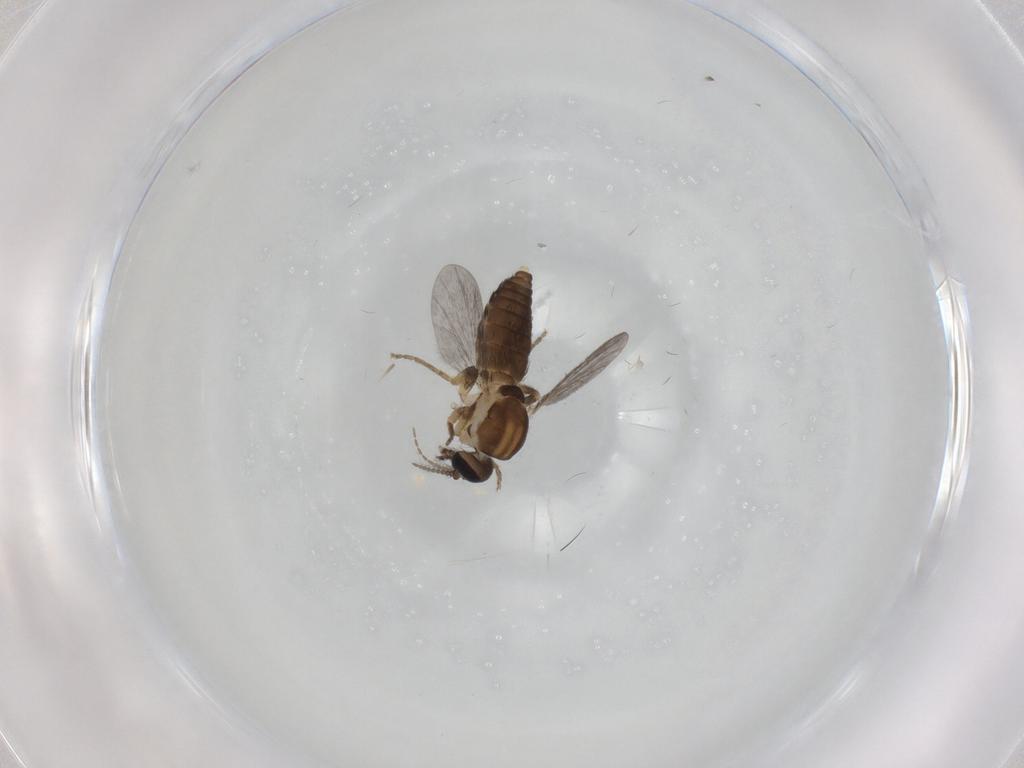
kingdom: Animalia
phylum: Arthropoda
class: Insecta
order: Diptera
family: Ceratopogonidae
